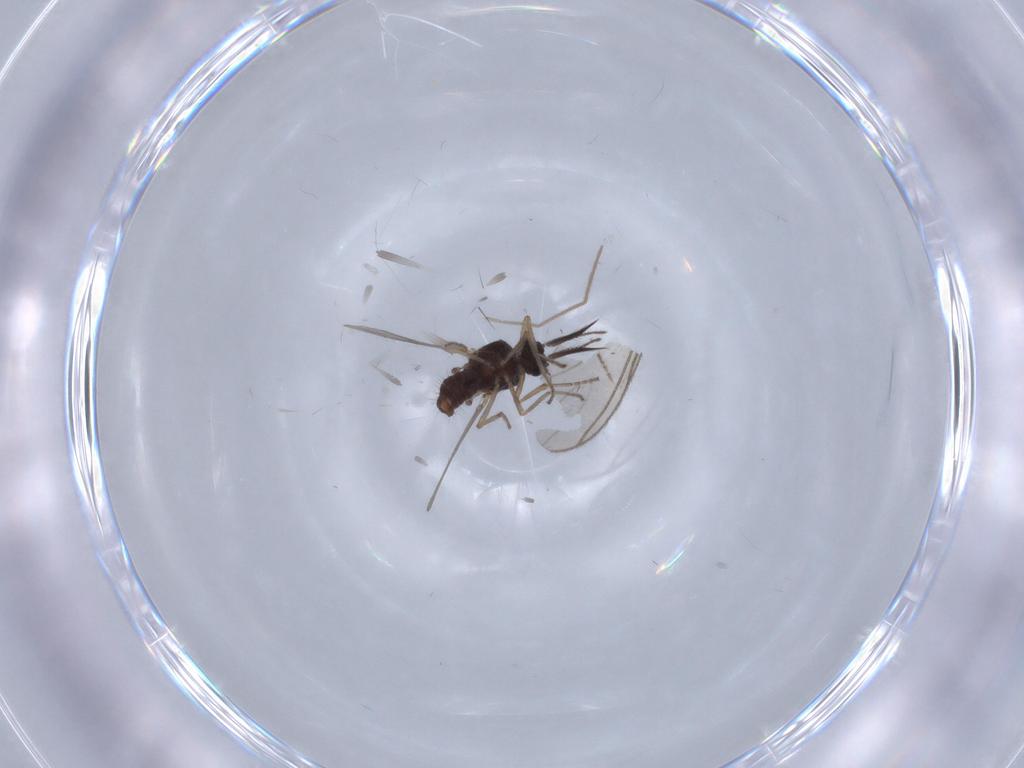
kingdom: Animalia
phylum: Arthropoda
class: Insecta
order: Diptera
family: Ceratopogonidae
